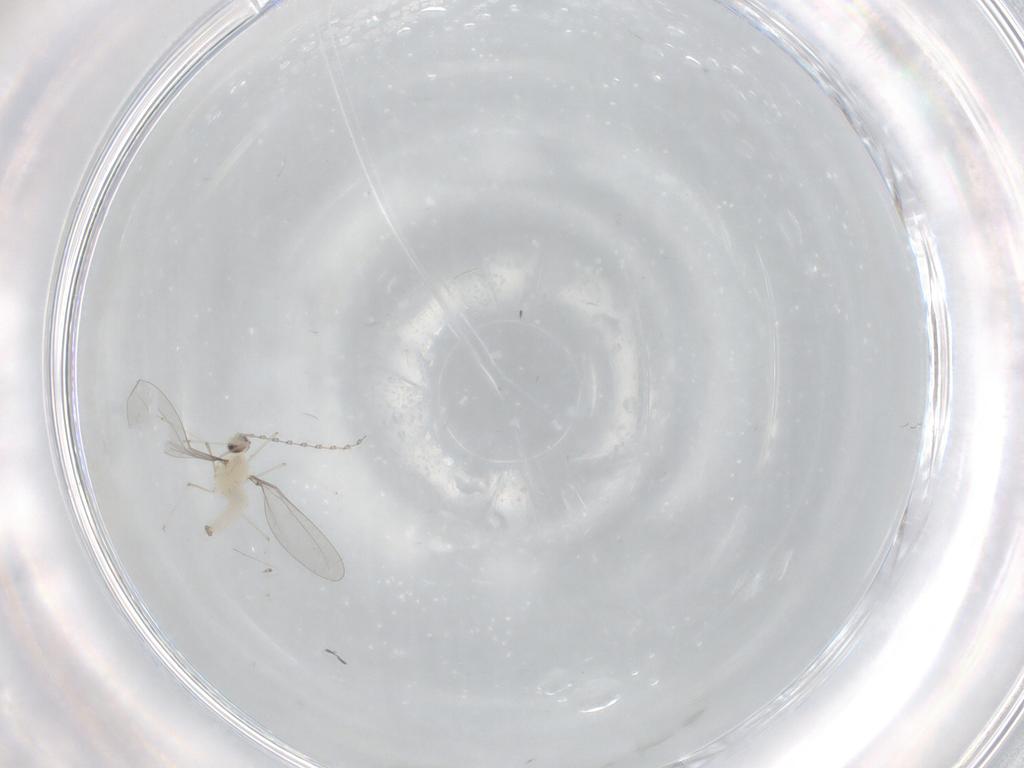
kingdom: Animalia
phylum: Arthropoda
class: Insecta
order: Diptera
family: Cecidomyiidae
